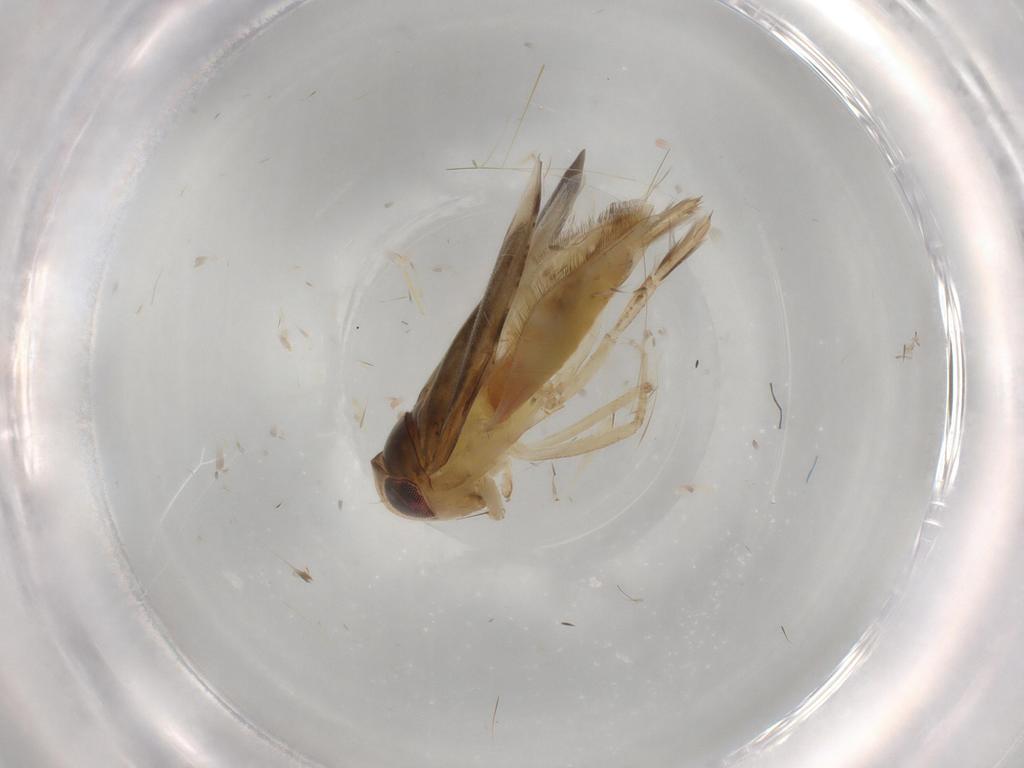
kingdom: Animalia
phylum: Arthropoda
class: Insecta
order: Hemiptera
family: Corixidae
